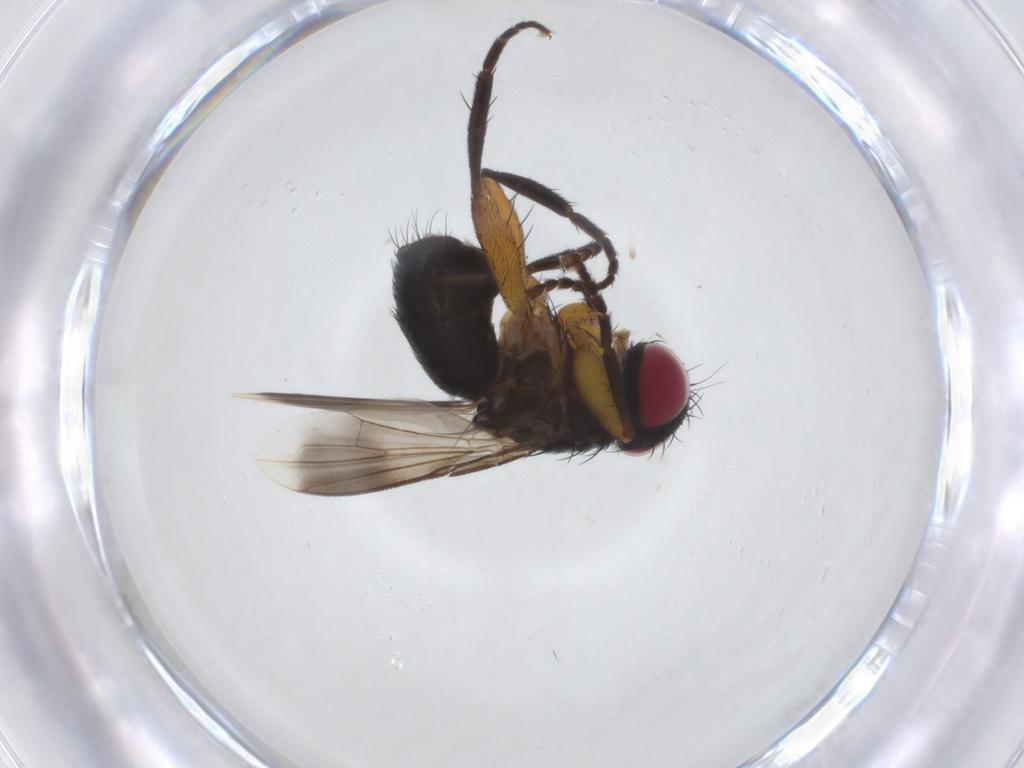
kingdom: Animalia
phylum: Arthropoda
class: Insecta
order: Diptera
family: Tachinidae
